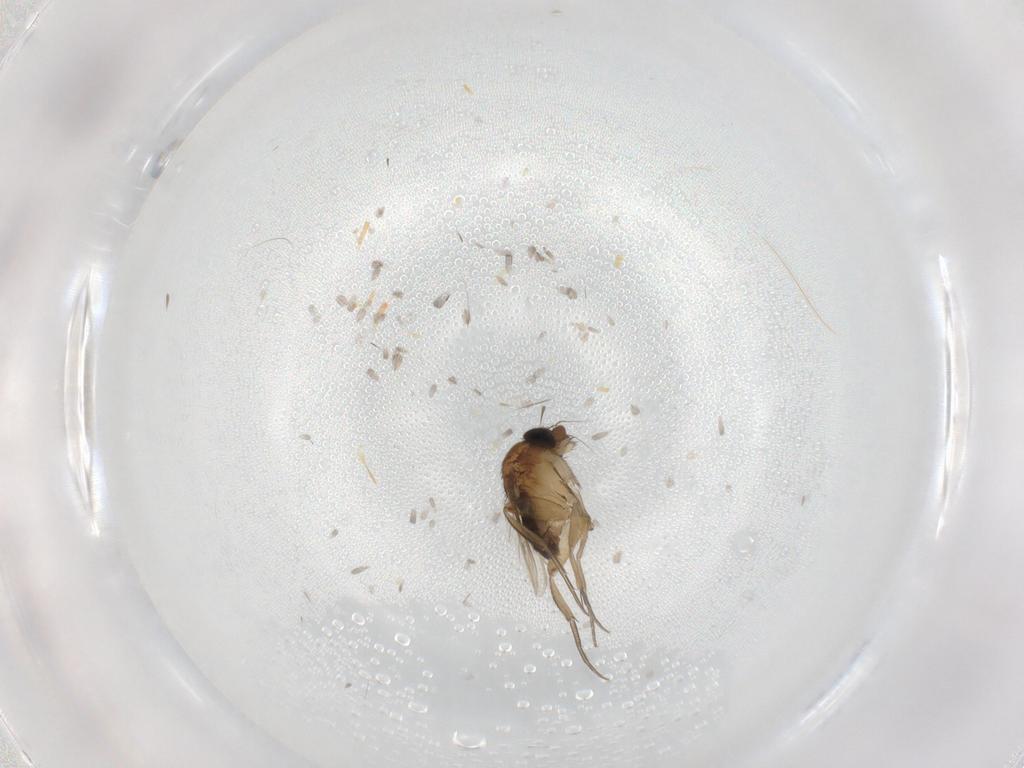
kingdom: Animalia
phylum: Arthropoda
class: Insecta
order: Diptera
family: Phoridae
